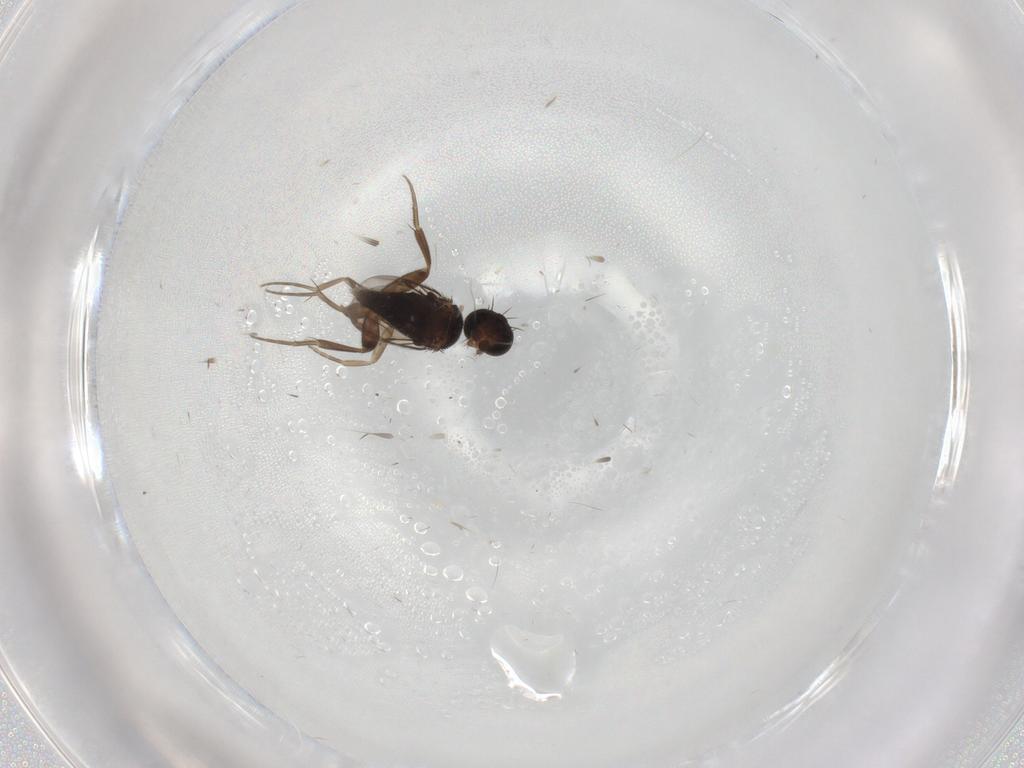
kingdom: Animalia
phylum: Arthropoda
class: Insecta
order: Diptera
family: Phoridae
